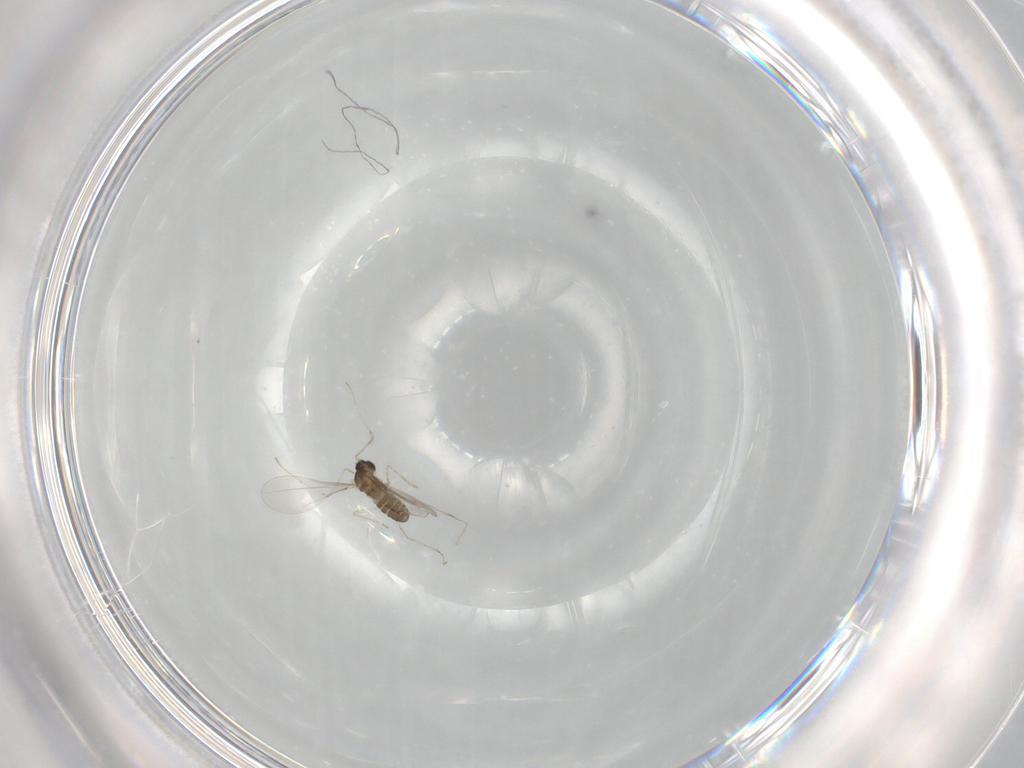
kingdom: Animalia
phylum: Arthropoda
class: Insecta
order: Diptera
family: Cecidomyiidae
